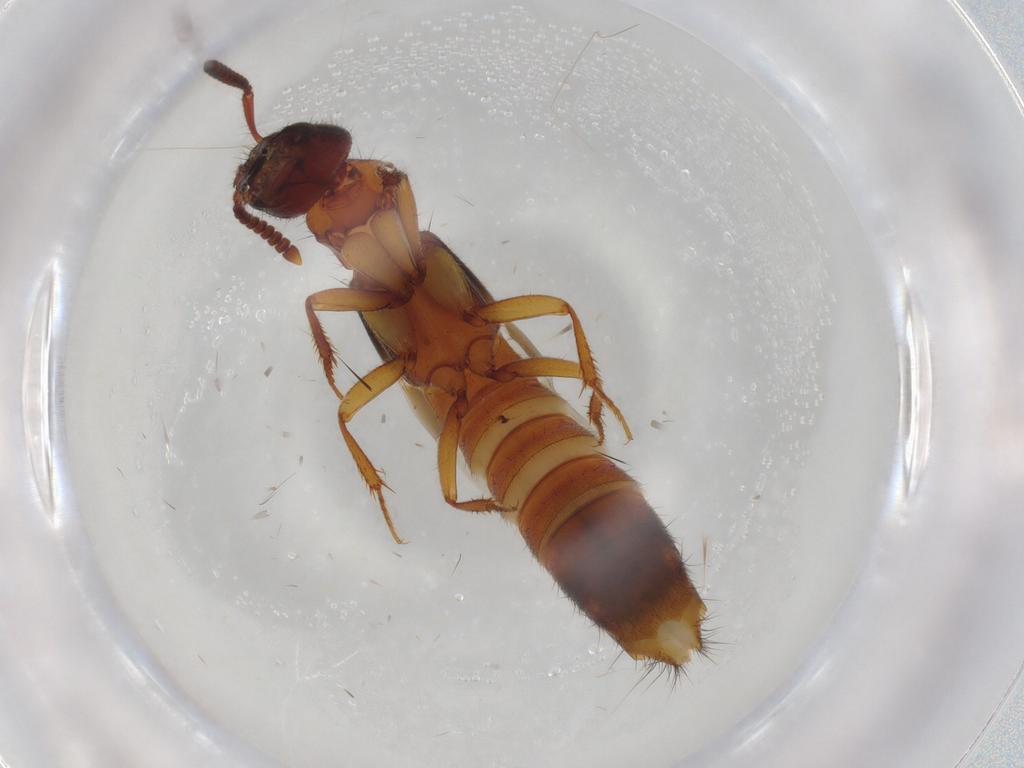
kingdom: Animalia
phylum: Arthropoda
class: Insecta
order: Coleoptera
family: Staphylinidae
